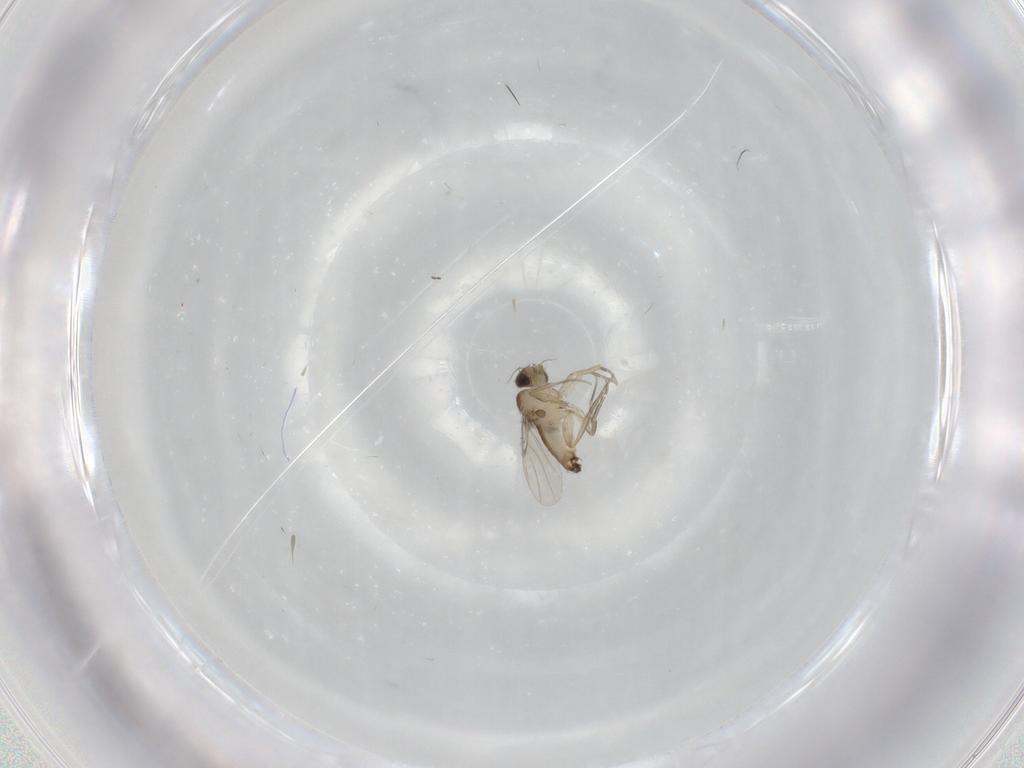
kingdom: Animalia
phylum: Arthropoda
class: Insecta
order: Diptera
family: Phoridae
